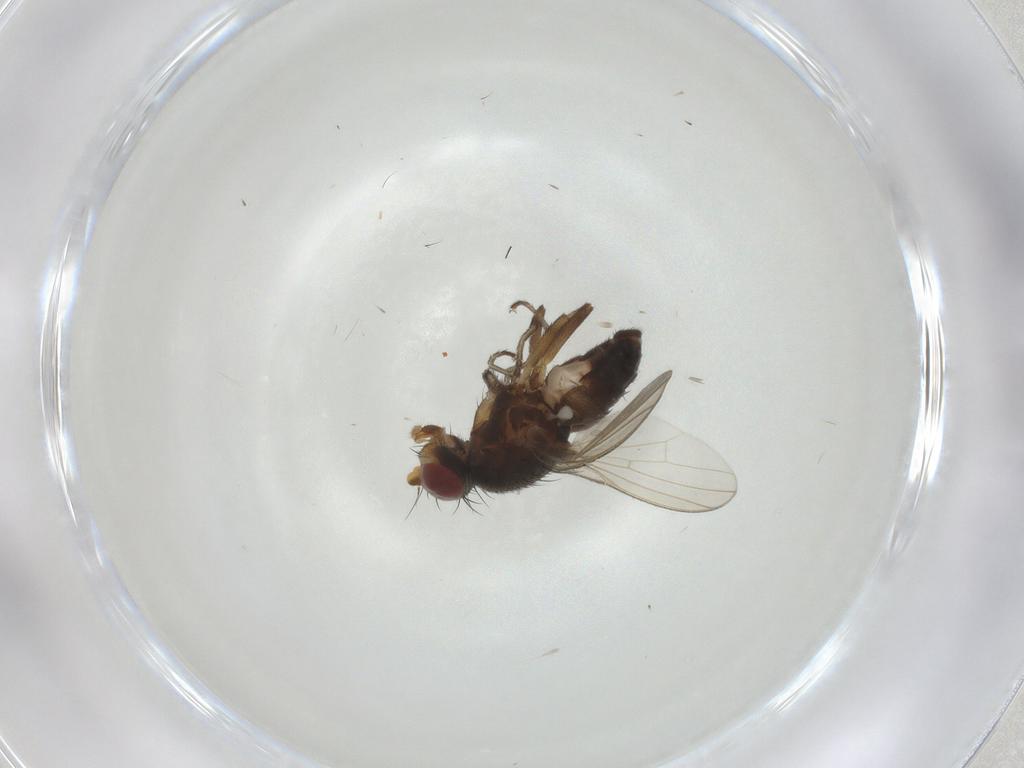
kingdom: Animalia
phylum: Arthropoda
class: Insecta
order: Diptera
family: Heleomyzidae
